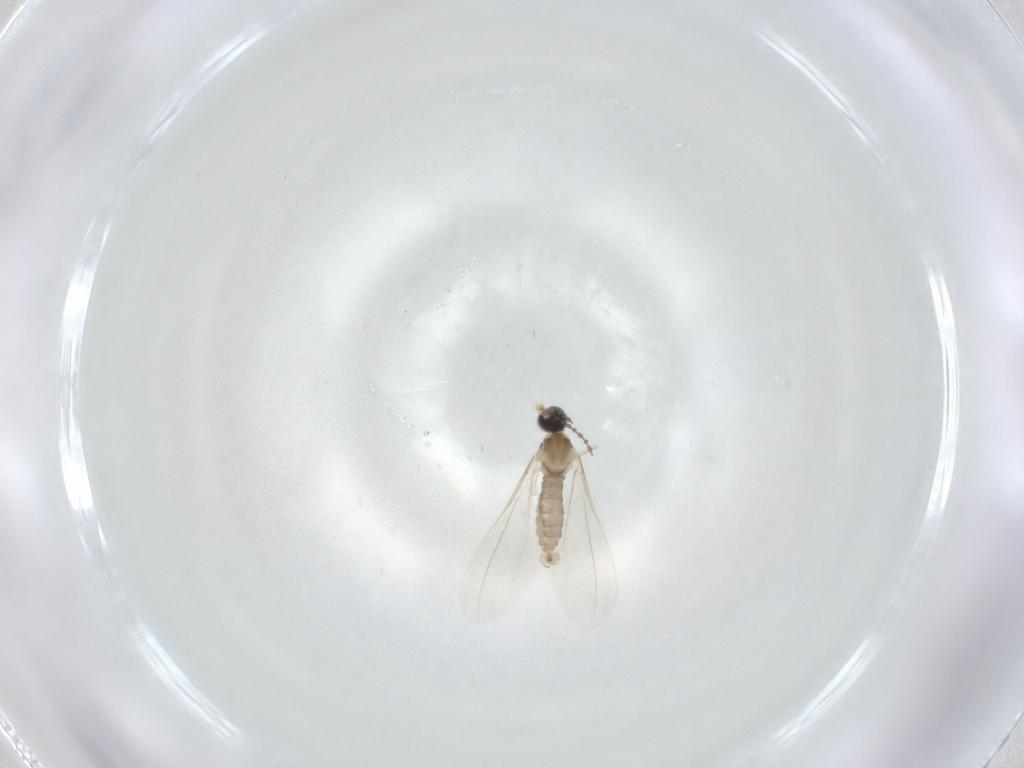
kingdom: Animalia
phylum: Arthropoda
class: Insecta
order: Diptera
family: Cecidomyiidae
